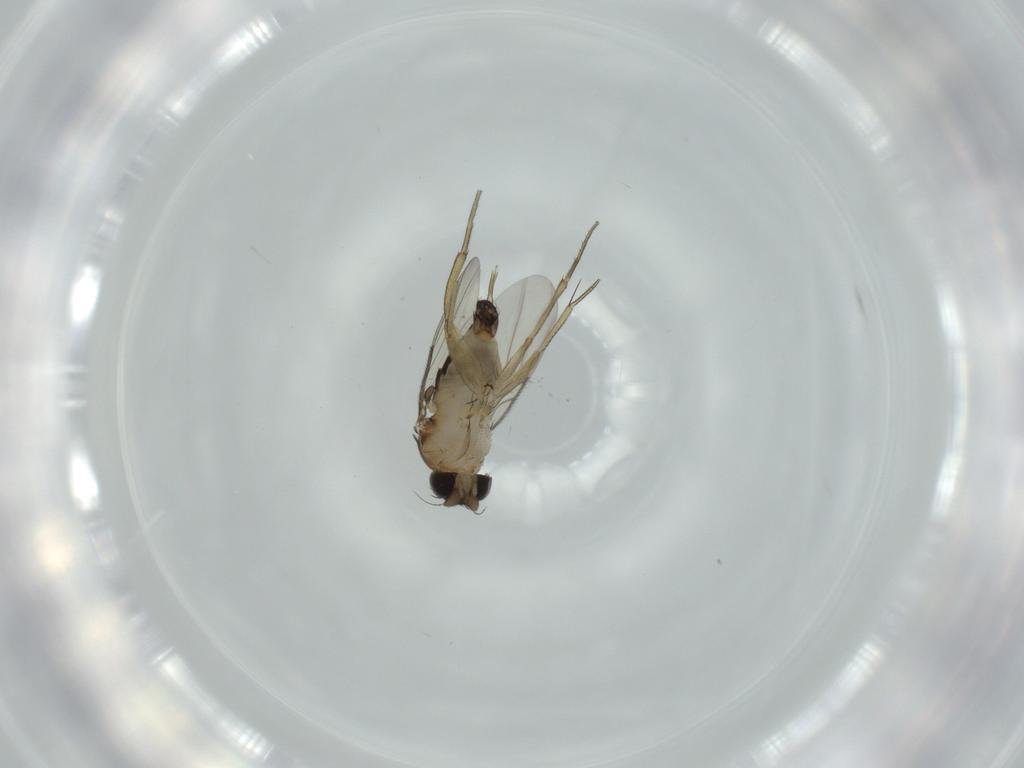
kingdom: Animalia
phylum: Arthropoda
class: Insecta
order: Diptera
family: Phoridae
